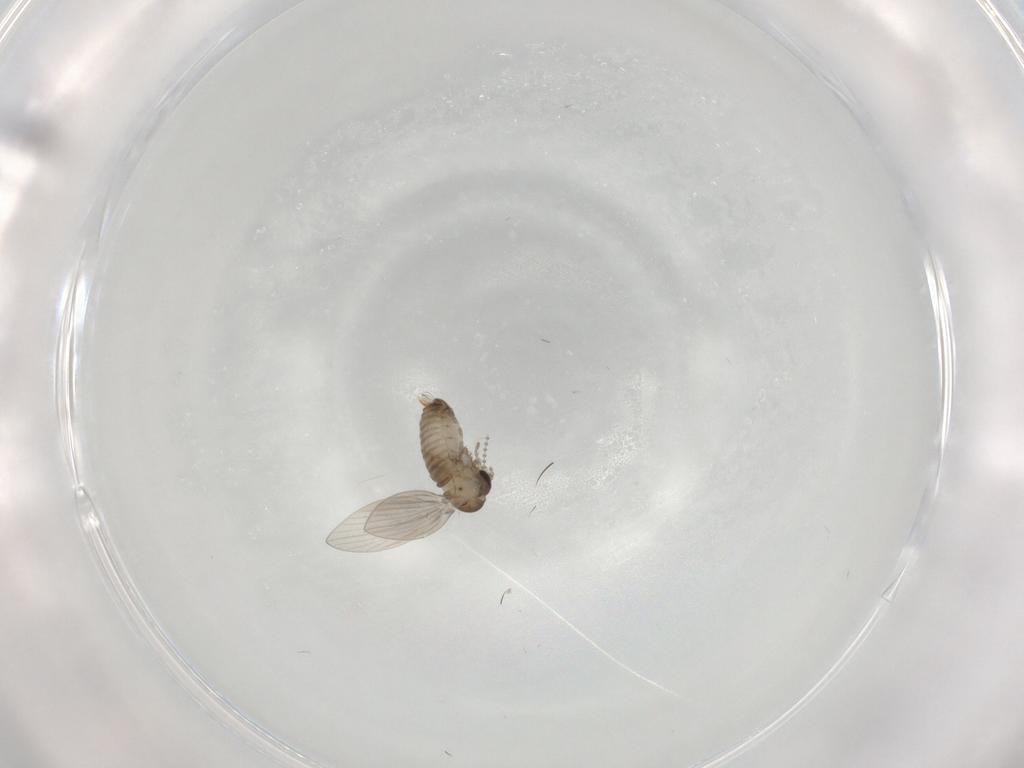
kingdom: Animalia
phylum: Arthropoda
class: Insecta
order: Diptera
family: Psychodidae
